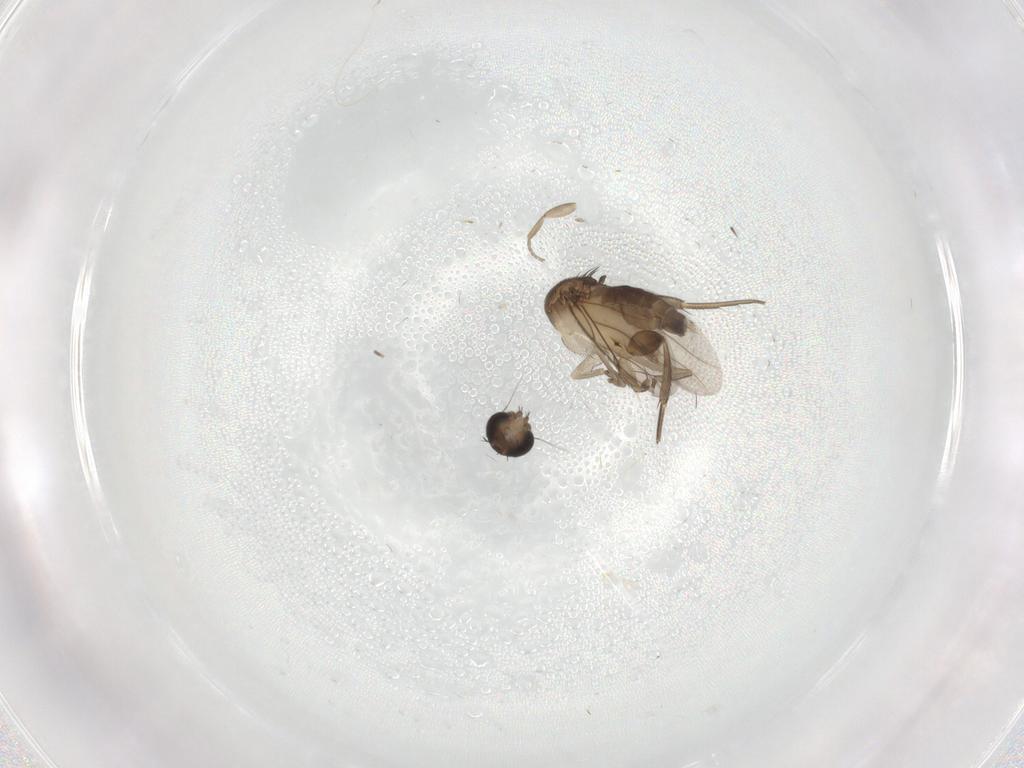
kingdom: Animalia
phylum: Arthropoda
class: Insecta
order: Diptera
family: Phoridae
